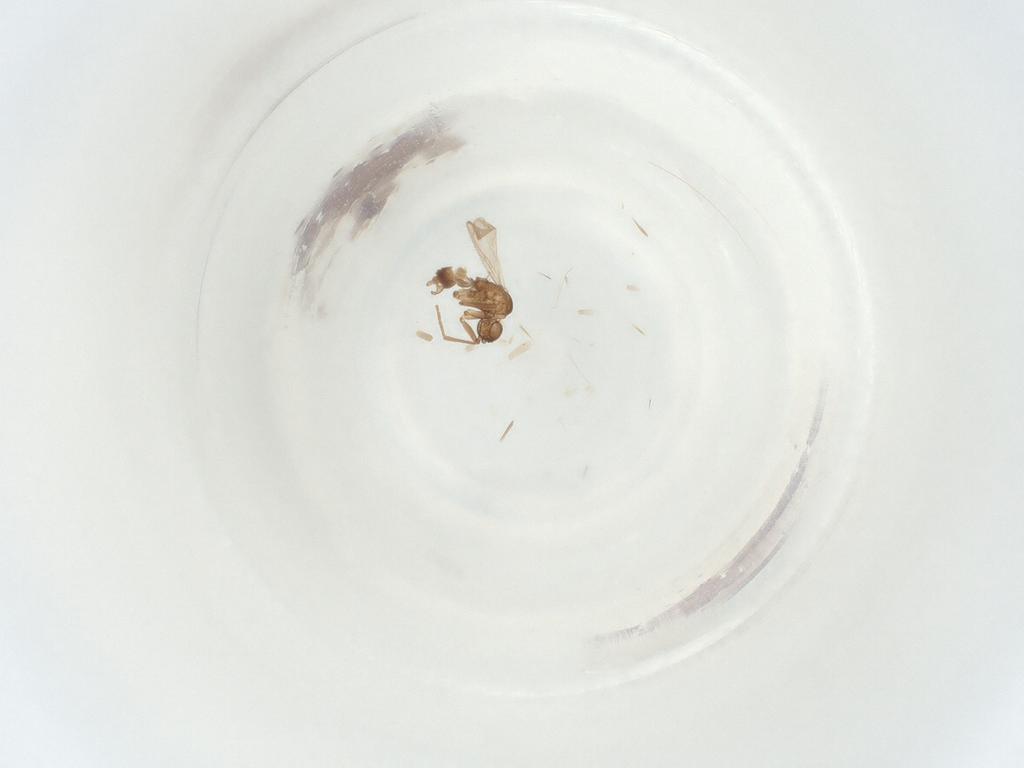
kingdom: Animalia
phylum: Arthropoda
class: Insecta
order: Diptera
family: Sciaridae
